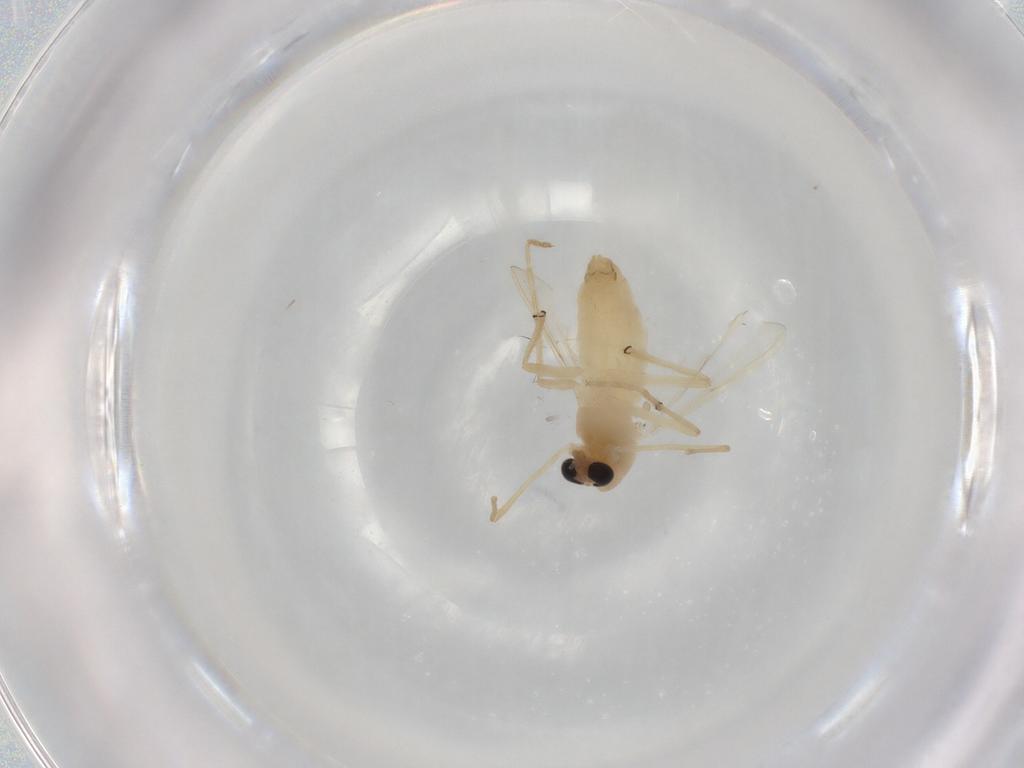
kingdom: Animalia
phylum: Arthropoda
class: Insecta
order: Diptera
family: Chironomidae
